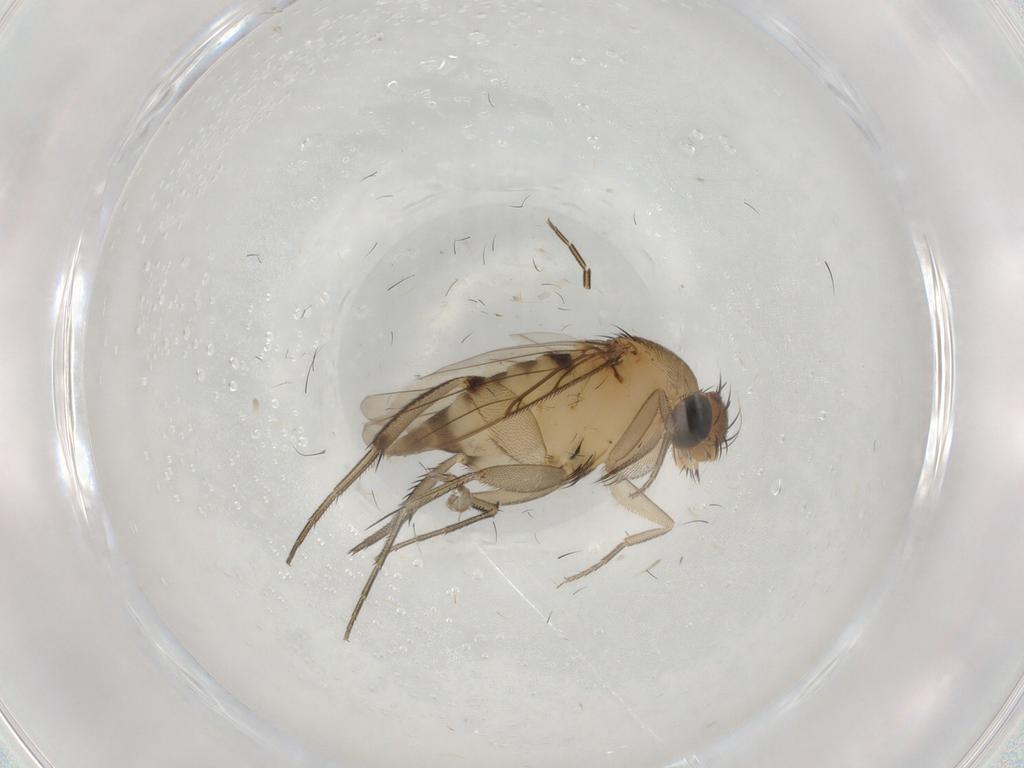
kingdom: Animalia
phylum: Arthropoda
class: Insecta
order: Diptera
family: Phoridae
